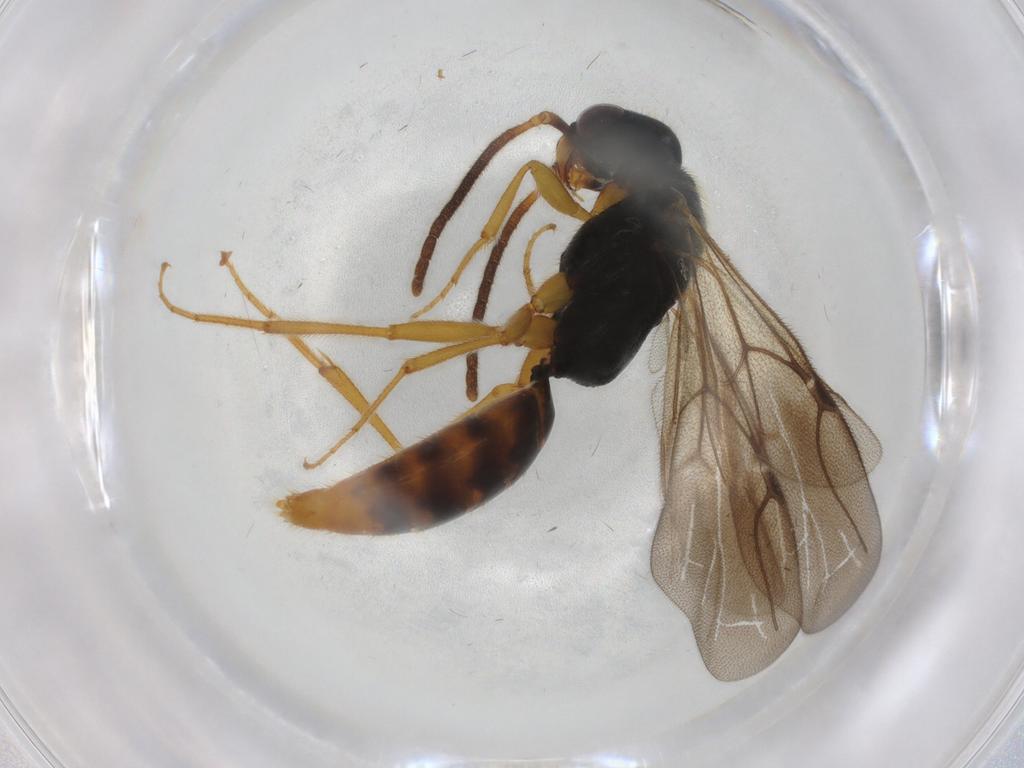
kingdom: Animalia
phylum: Arthropoda
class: Insecta
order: Hymenoptera
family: Bethylidae
